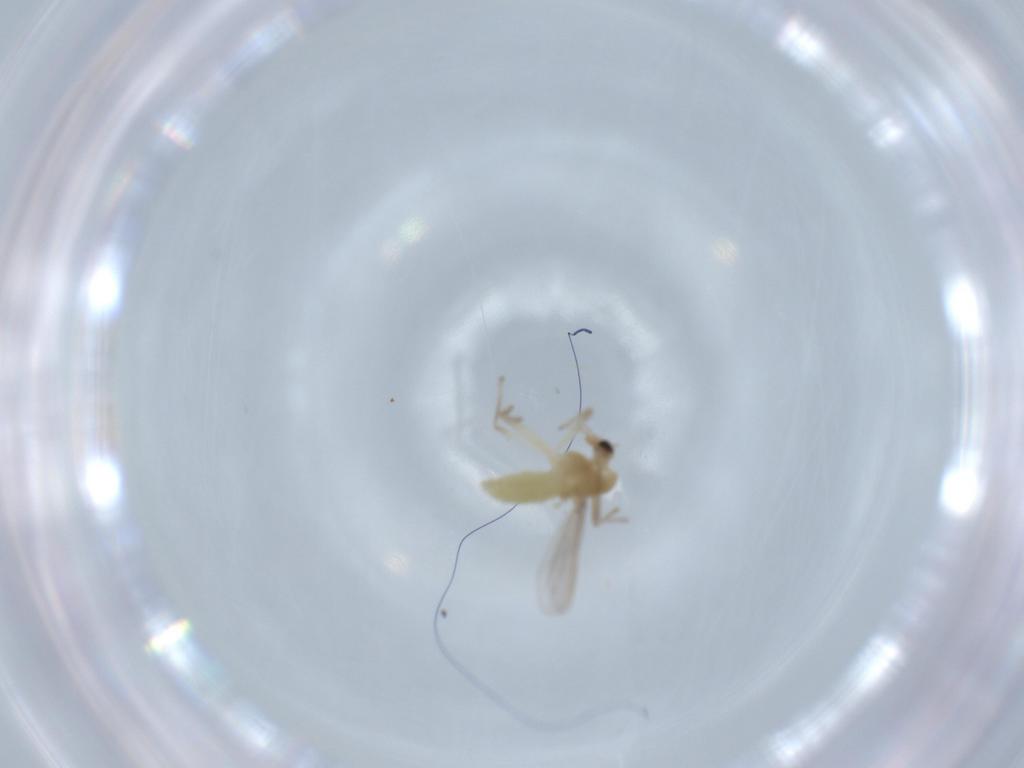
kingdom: Animalia
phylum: Arthropoda
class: Insecta
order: Diptera
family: Chironomidae
